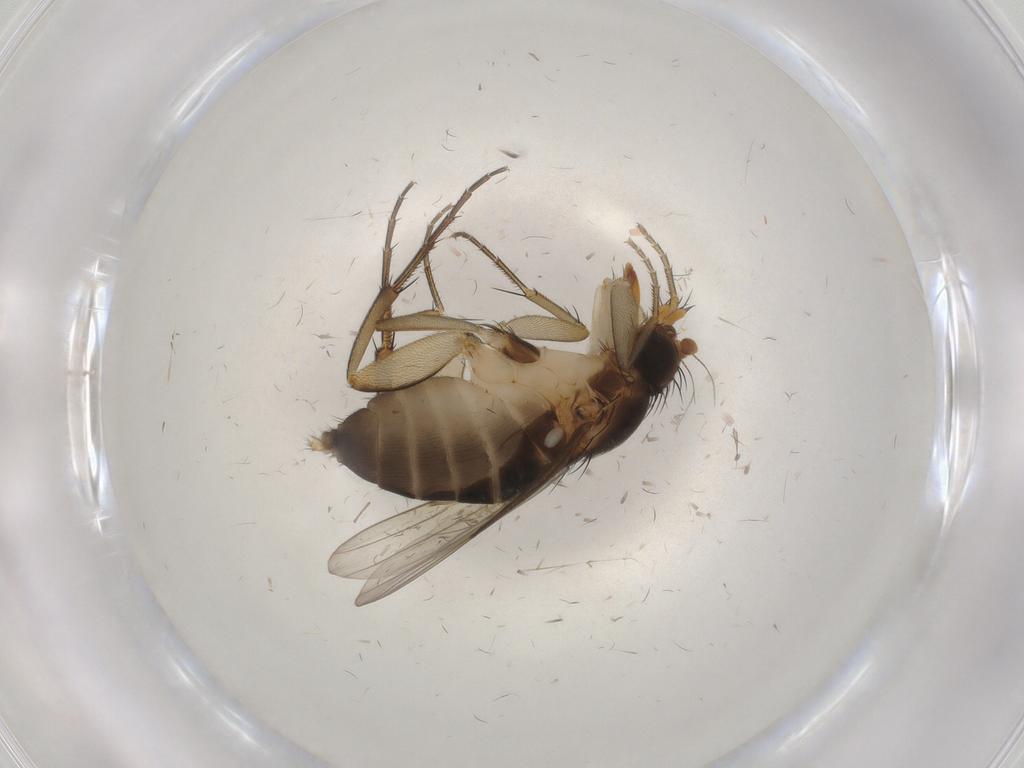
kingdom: Animalia
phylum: Arthropoda
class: Insecta
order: Diptera
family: Phoridae
